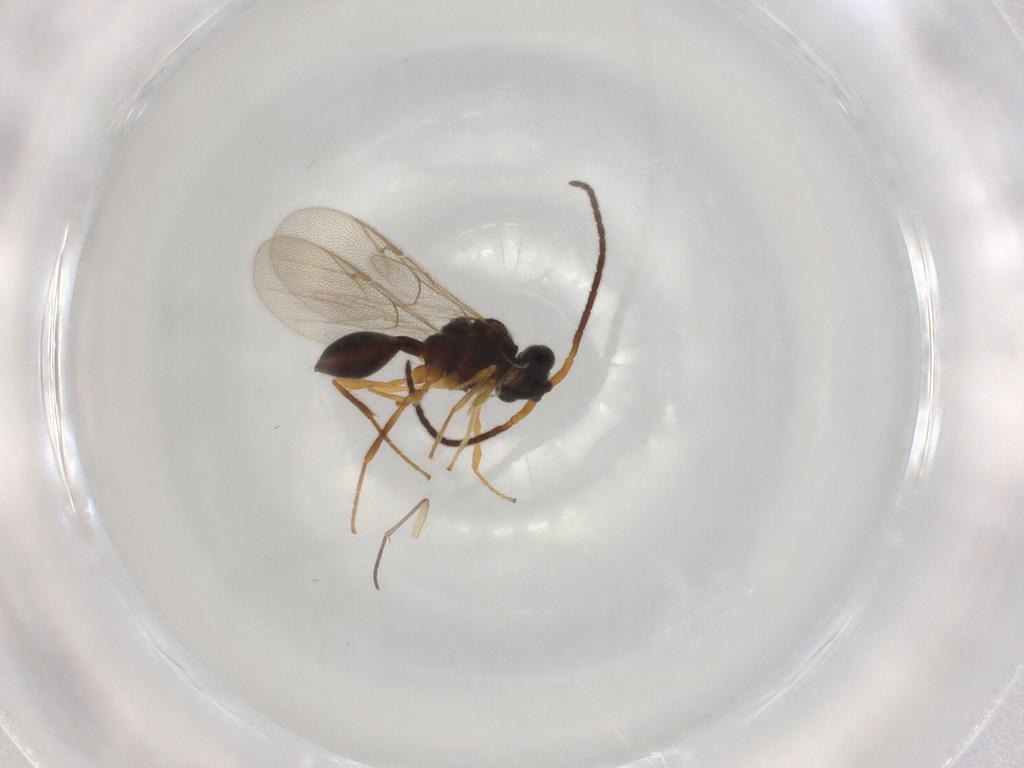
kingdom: Animalia
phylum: Arthropoda
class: Insecta
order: Hymenoptera
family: Diapriidae
